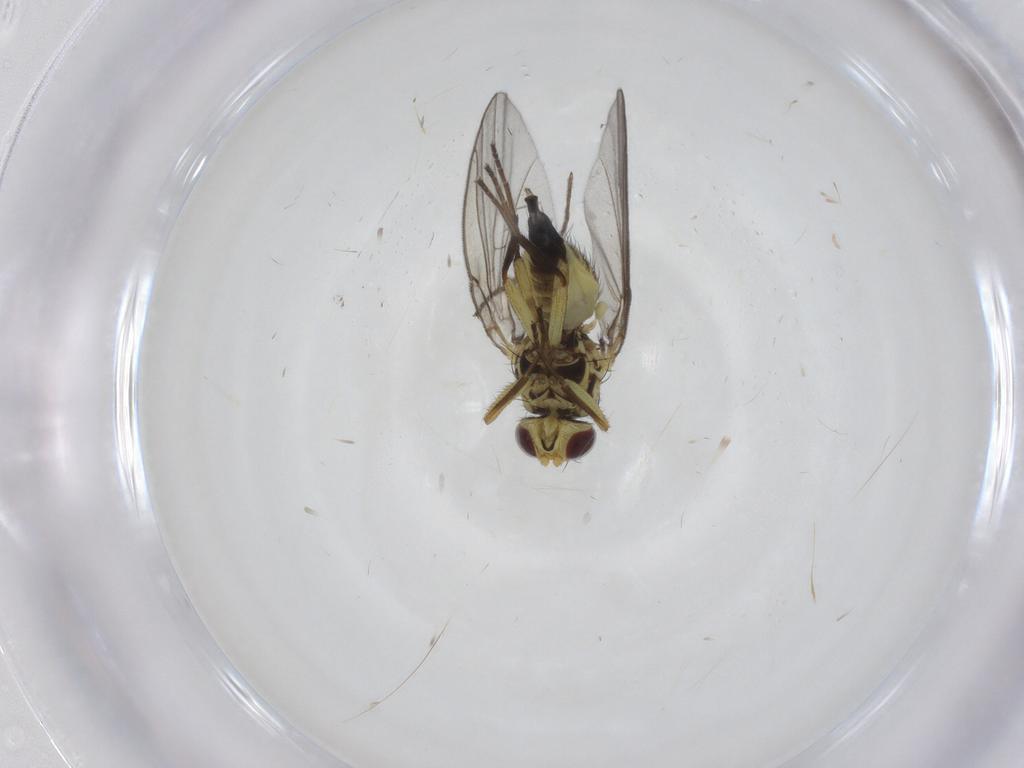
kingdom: Animalia
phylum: Arthropoda
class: Insecta
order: Diptera
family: Agromyzidae
